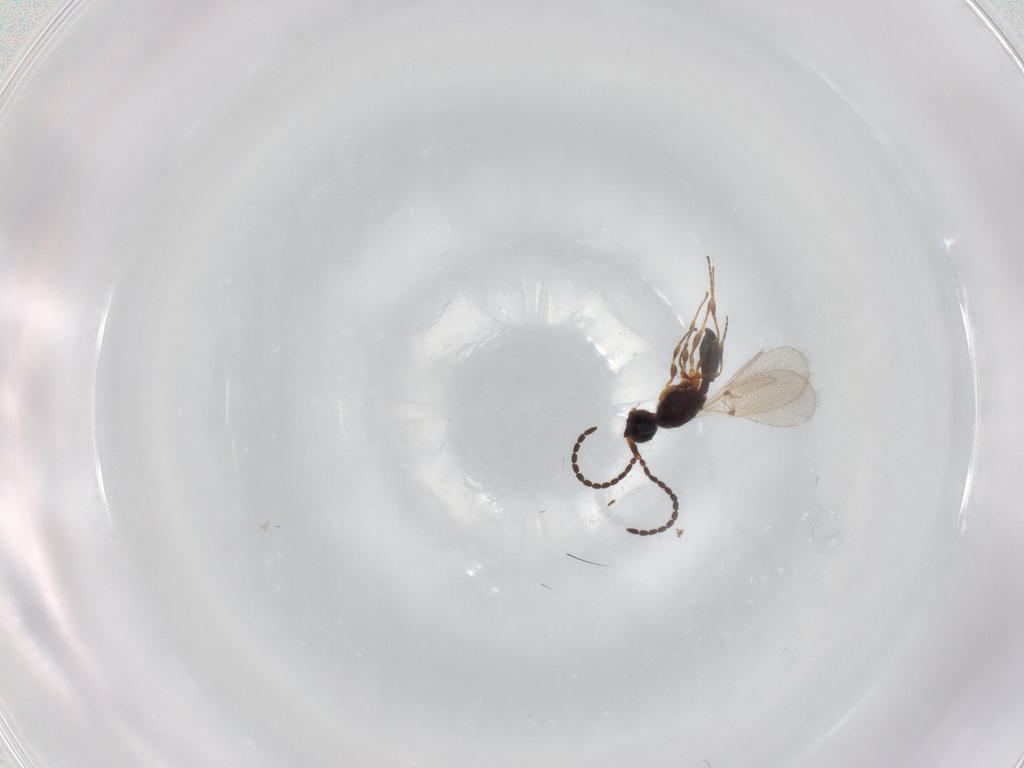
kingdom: Animalia
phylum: Arthropoda
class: Insecta
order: Hymenoptera
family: Diapriidae
